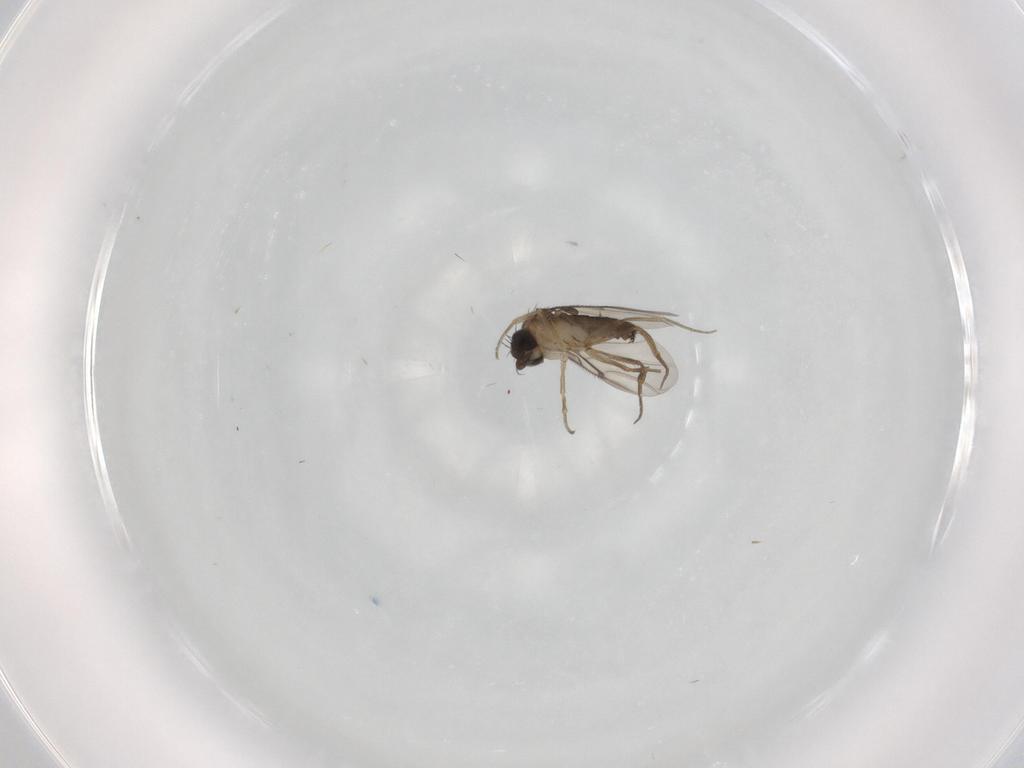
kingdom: Animalia
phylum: Arthropoda
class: Insecta
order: Diptera
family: Phoridae
